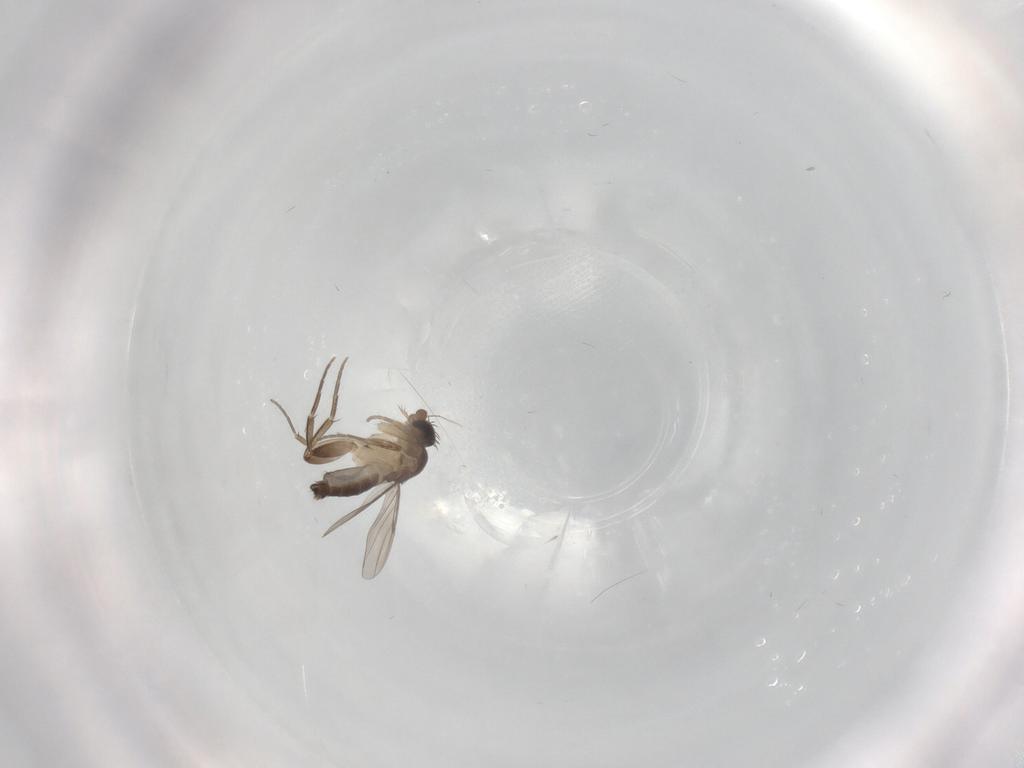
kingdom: Animalia
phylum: Arthropoda
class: Insecta
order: Diptera
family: Phoridae
